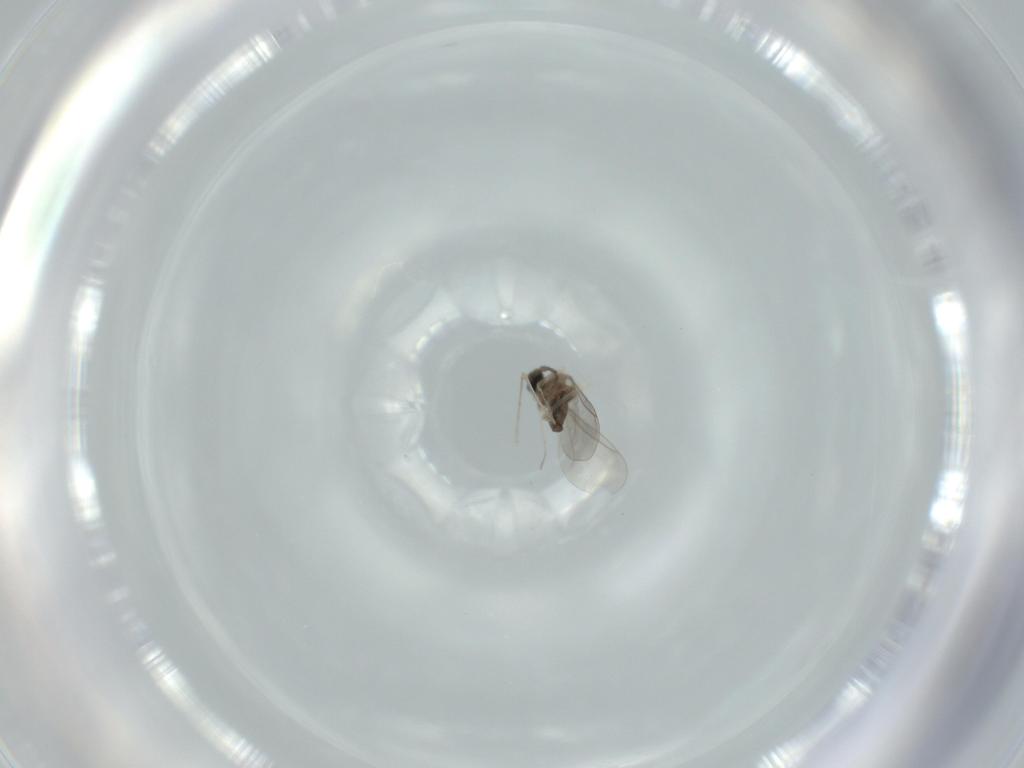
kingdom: Animalia
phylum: Arthropoda
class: Insecta
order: Diptera
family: Cecidomyiidae
